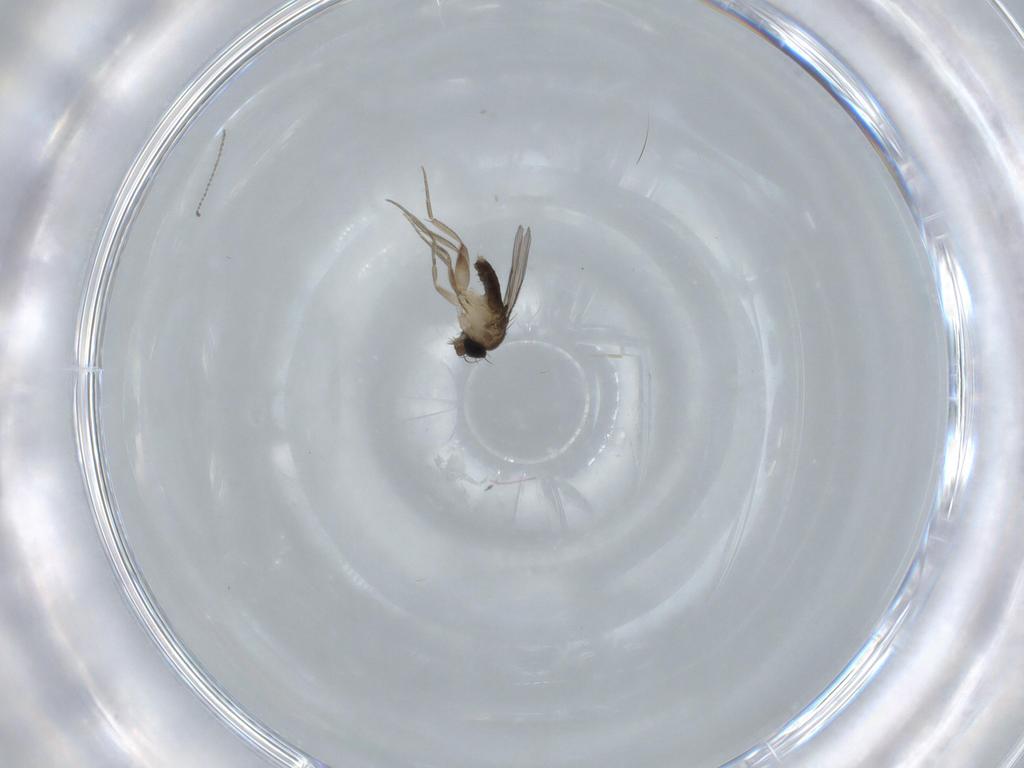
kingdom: Animalia
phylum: Arthropoda
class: Insecta
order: Diptera
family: Phoridae
